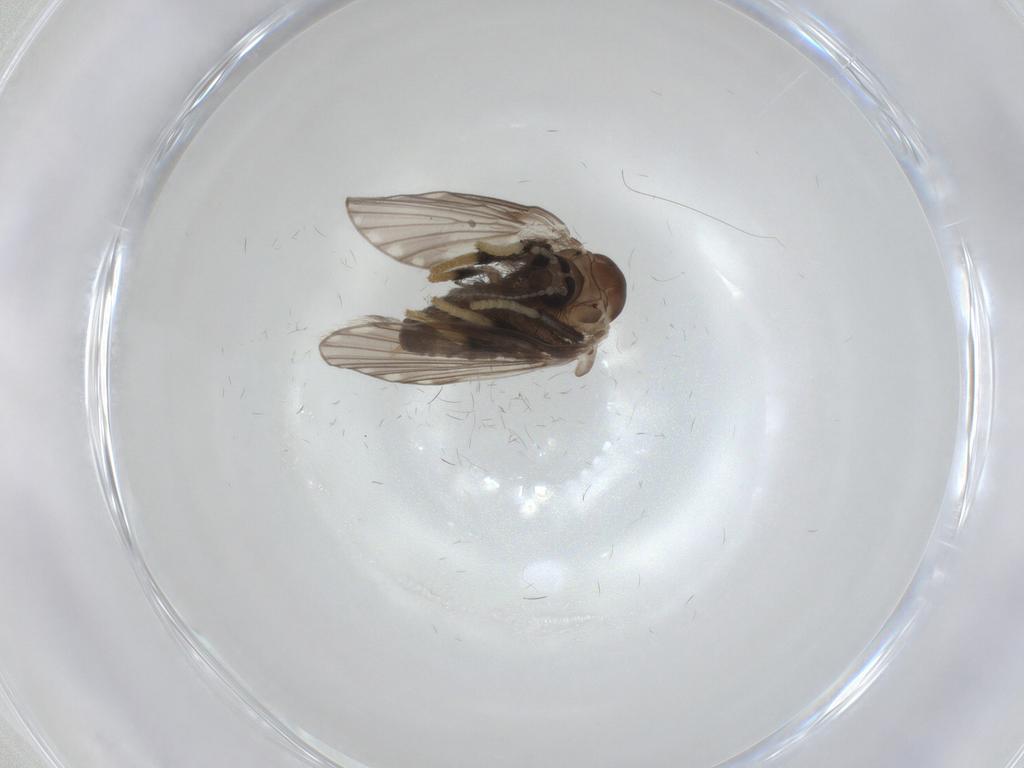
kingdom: Animalia
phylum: Arthropoda
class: Insecta
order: Diptera
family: Psychodidae
